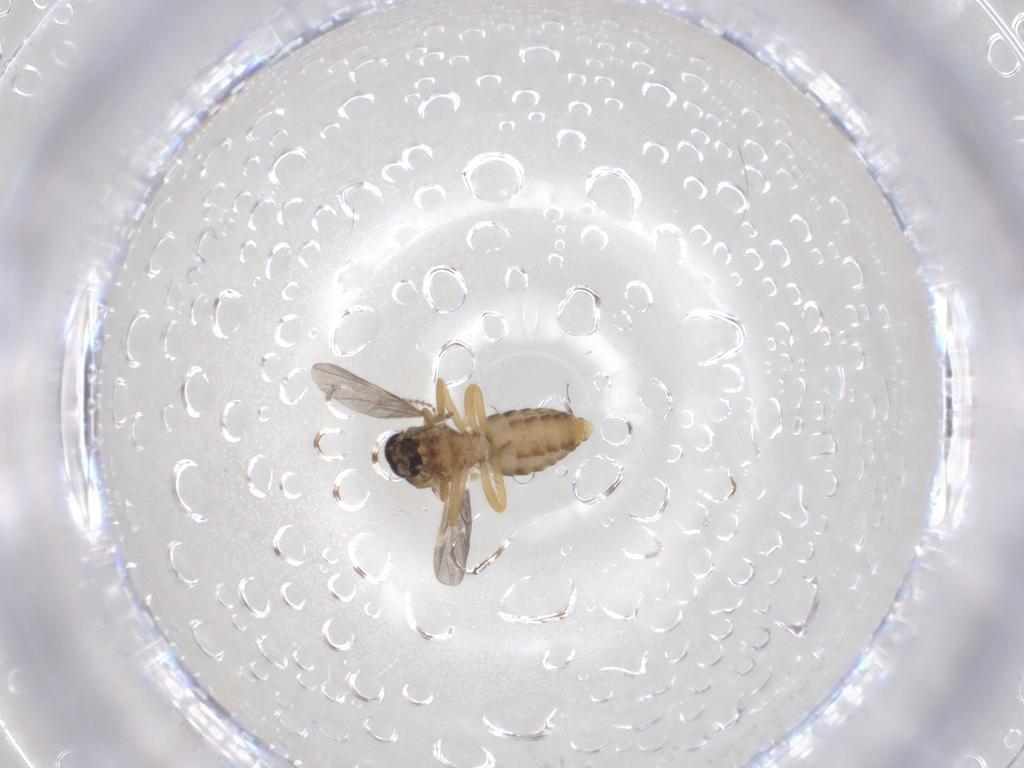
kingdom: Animalia
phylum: Arthropoda
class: Insecta
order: Diptera
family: Ceratopogonidae
